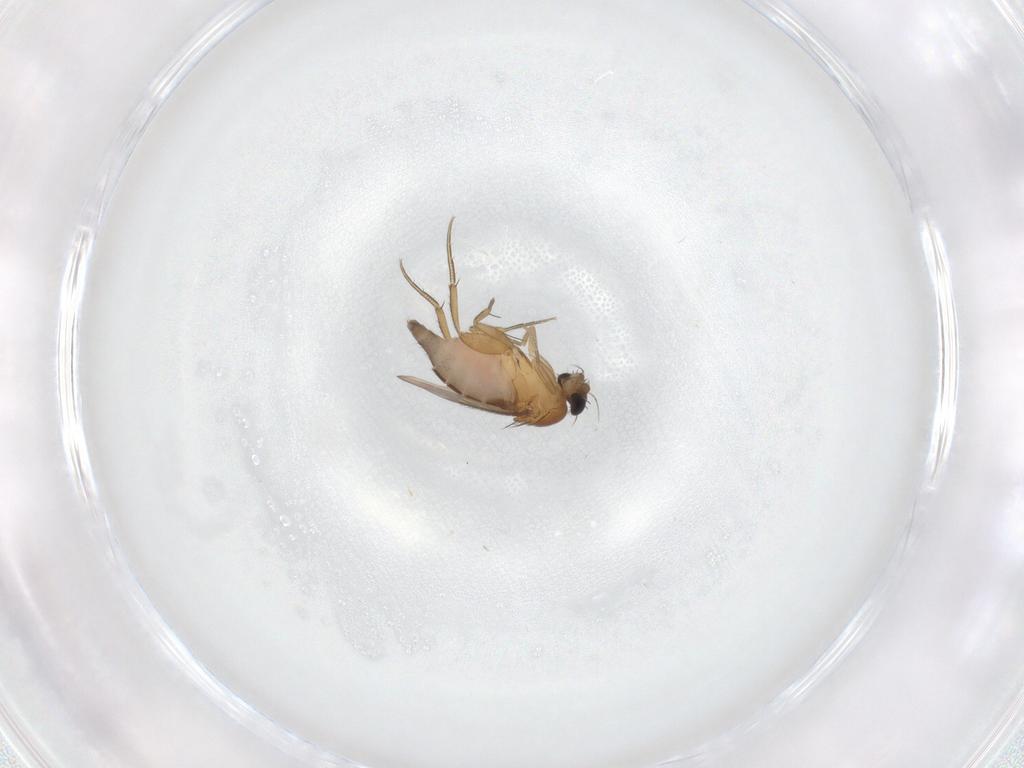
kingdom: Animalia
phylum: Arthropoda
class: Insecta
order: Diptera
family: Phoridae
